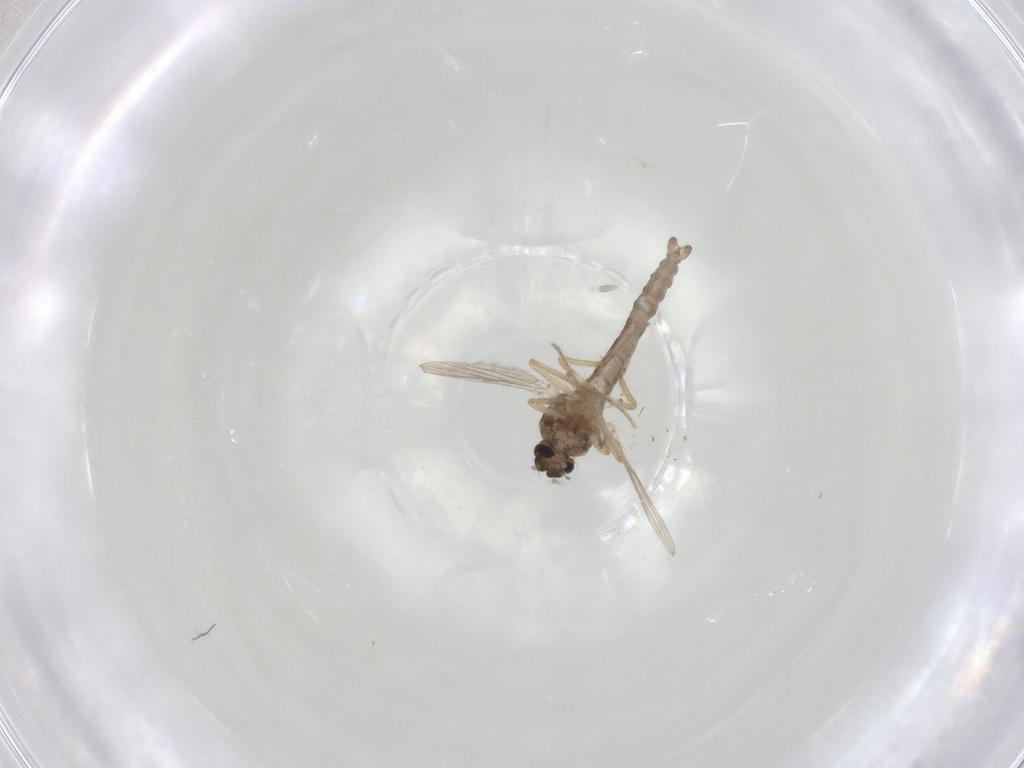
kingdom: Animalia
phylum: Arthropoda
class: Insecta
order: Diptera
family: Ceratopogonidae
